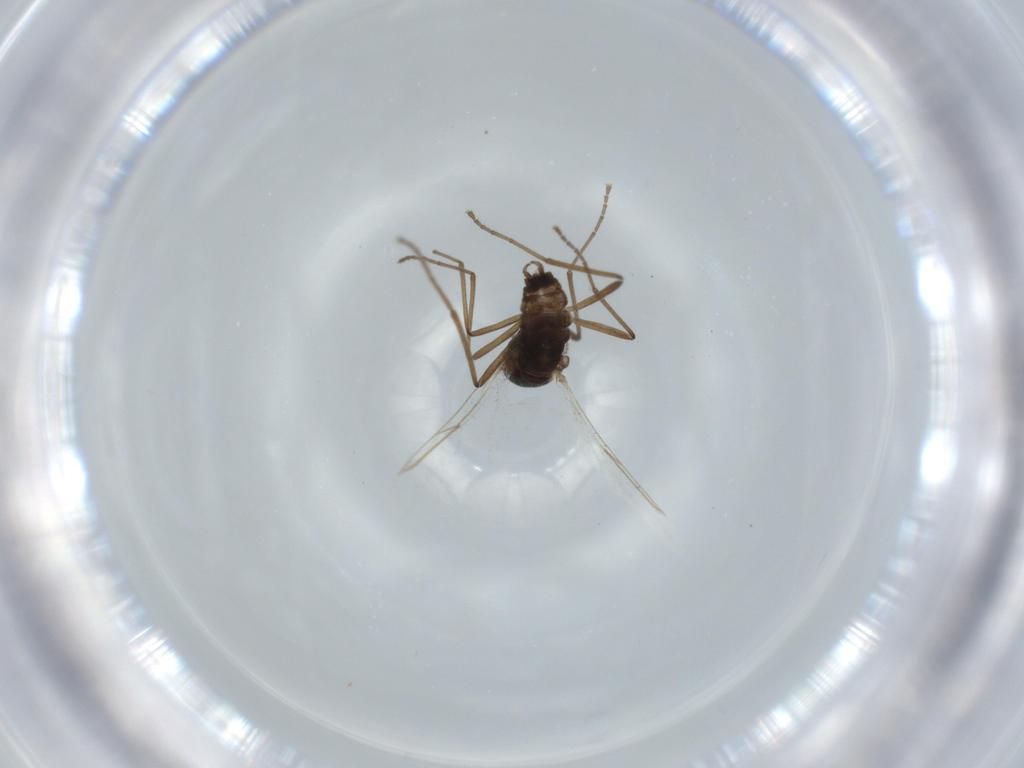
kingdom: Animalia
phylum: Arthropoda
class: Insecta
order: Diptera
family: Cecidomyiidae
